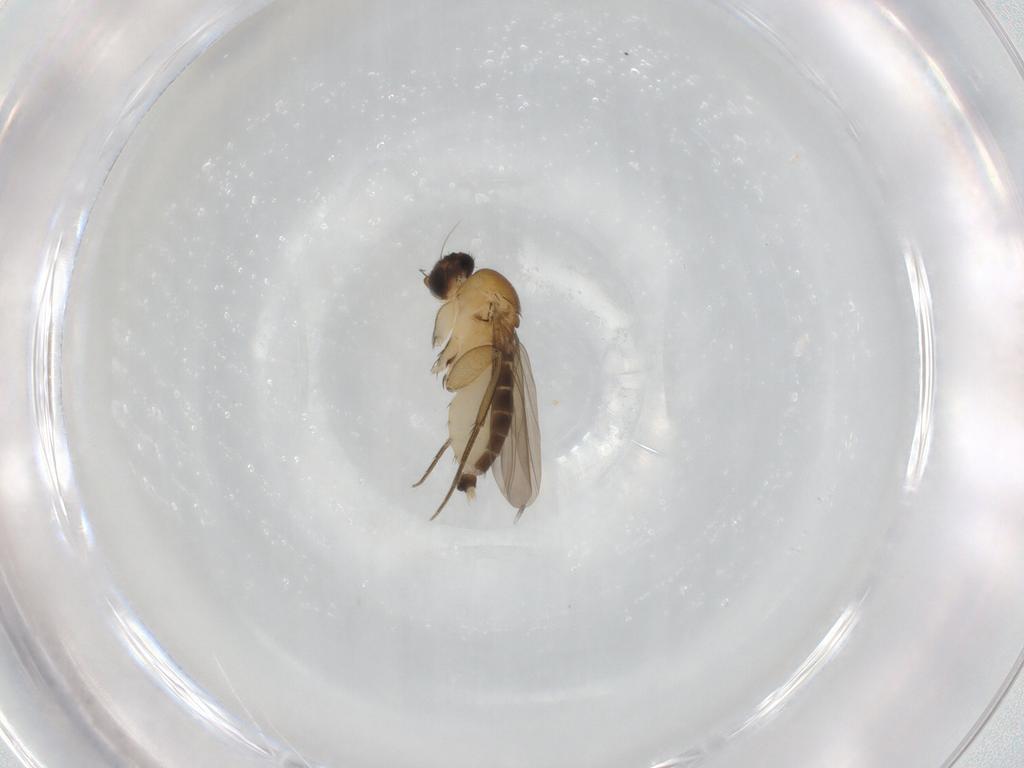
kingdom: Animalia
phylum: Arthropoda
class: Insecta
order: Diptera
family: Phoridae
